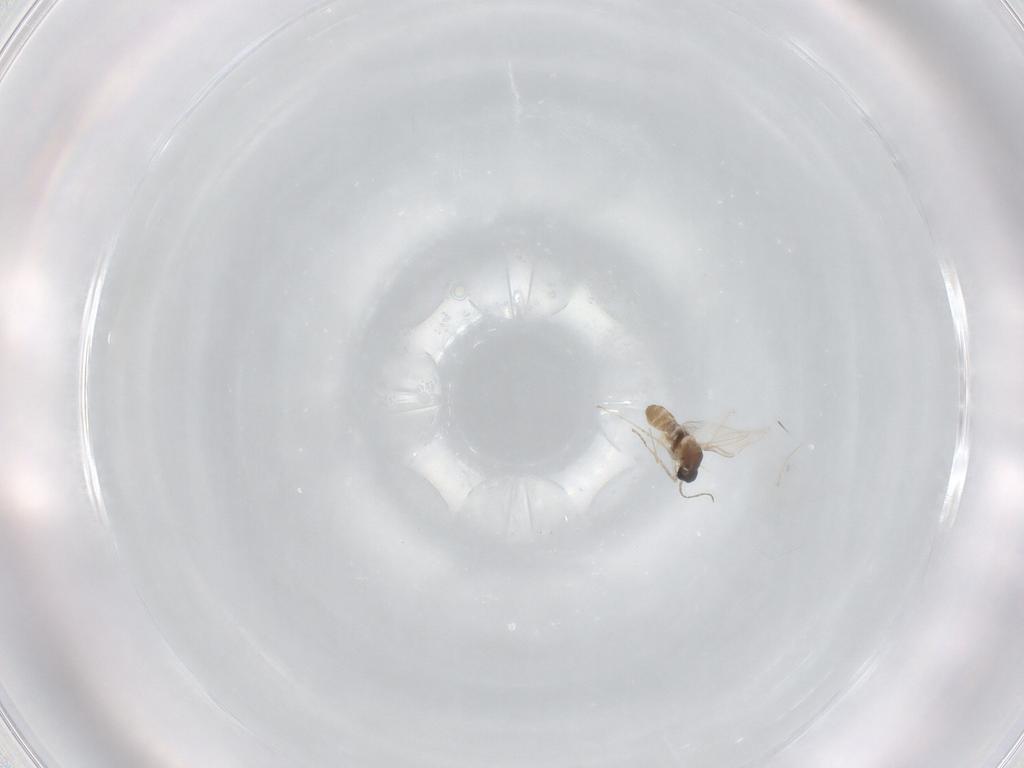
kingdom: Animalia
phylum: Arthropoda
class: Insecta
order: Diptera
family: Cecidomyiidae
